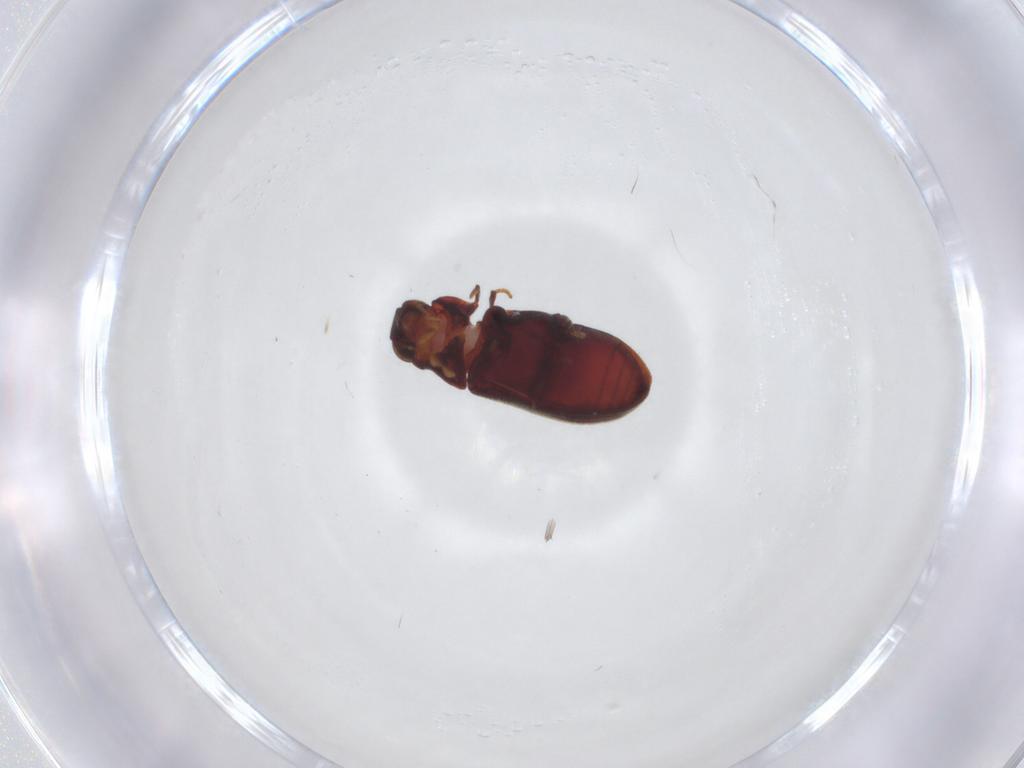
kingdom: Animalia
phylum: Arthropoda
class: Insecta
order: Coleoptera
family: Anobiidae
